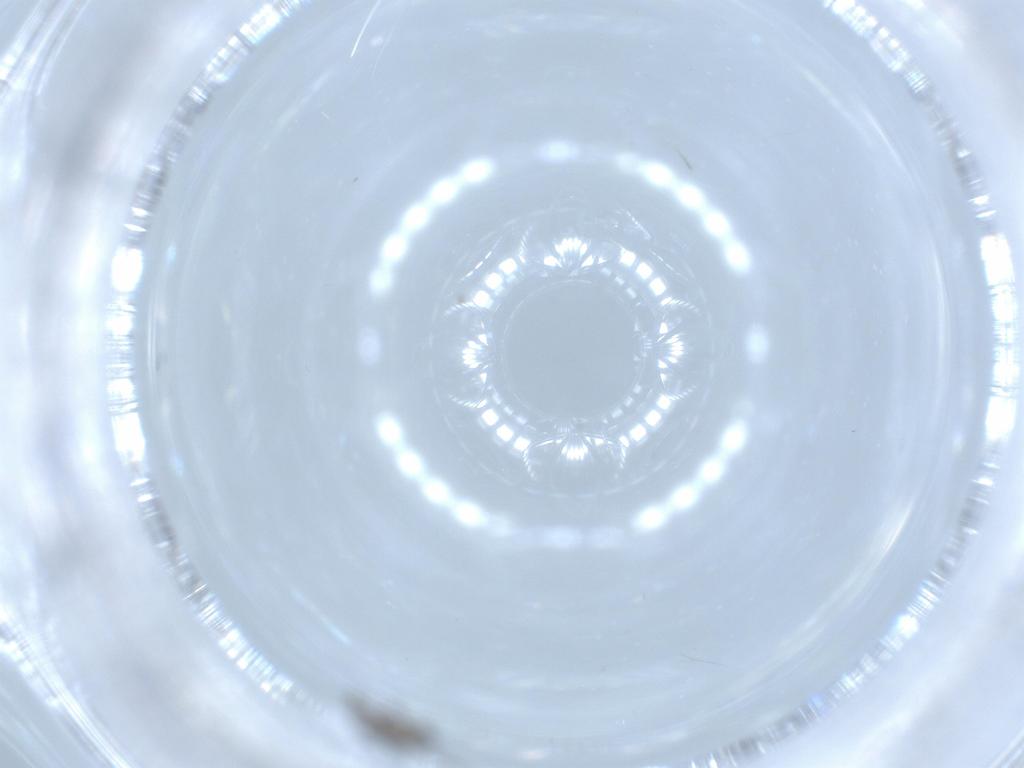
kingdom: Animalia
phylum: Arthropoda
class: Insecta
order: Diptera
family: Sciaridae
